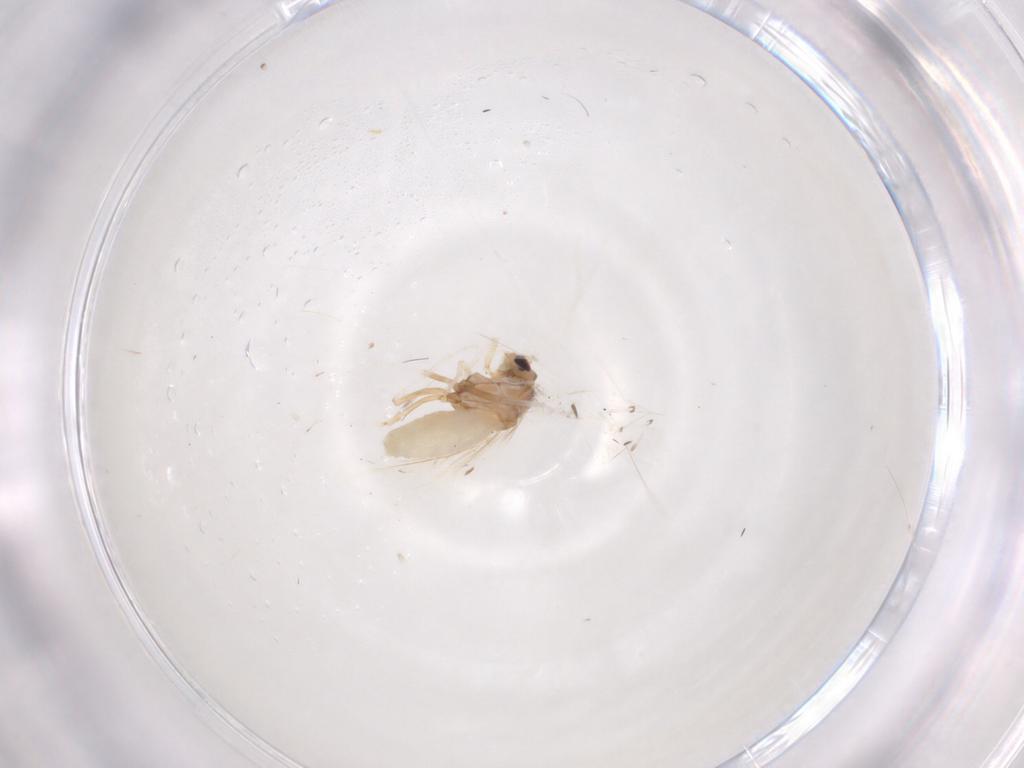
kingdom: Animalia
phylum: Arthropoda
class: Insecta
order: Neuroptera
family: Coniopterygidae
